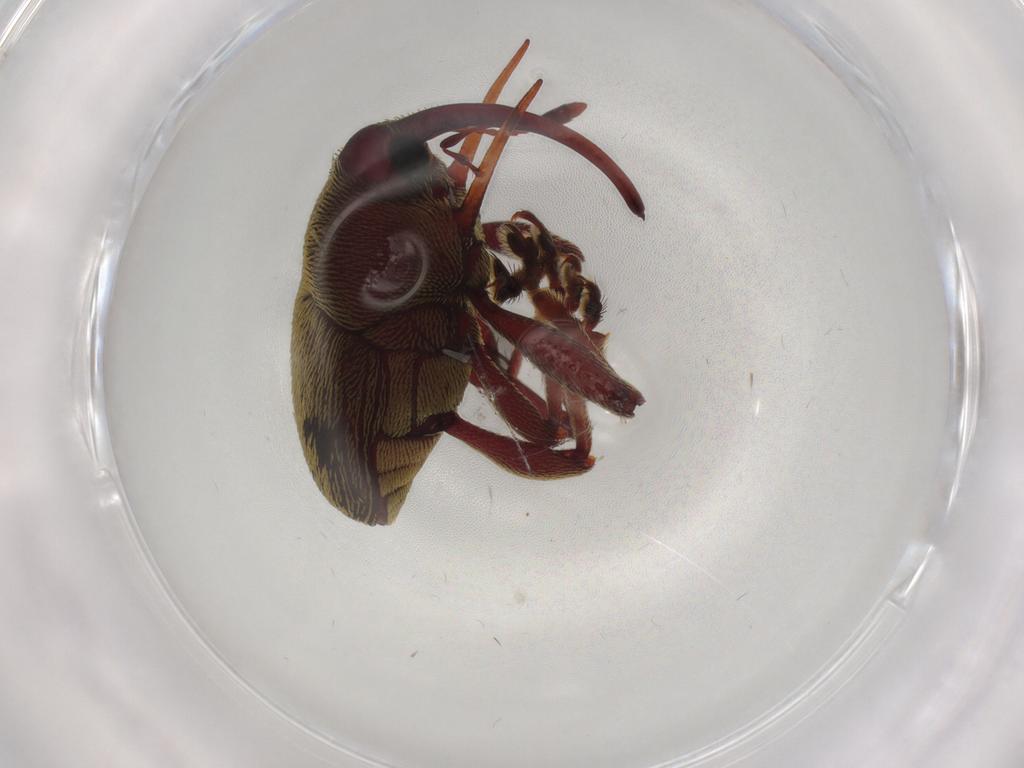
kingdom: Animalia
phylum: Arthropoda
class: Insecta
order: Coleoptera
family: Curculionidae
